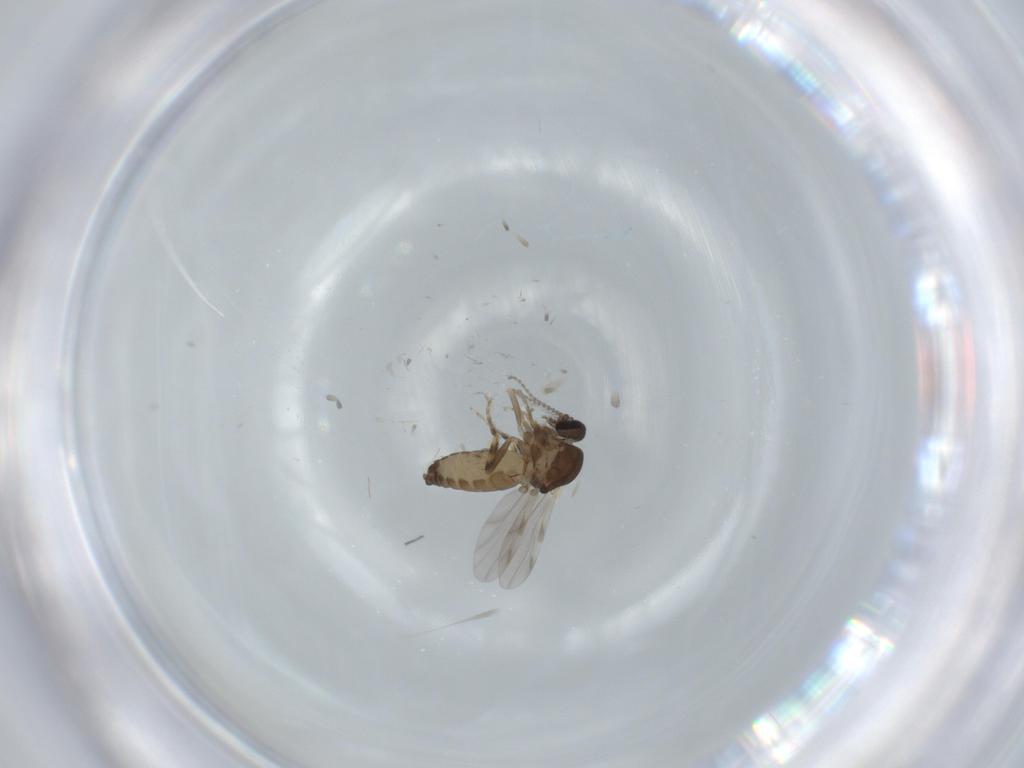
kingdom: Animalia
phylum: Arthropoda
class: Insecta
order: Diptera
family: Ceratopogonidae
